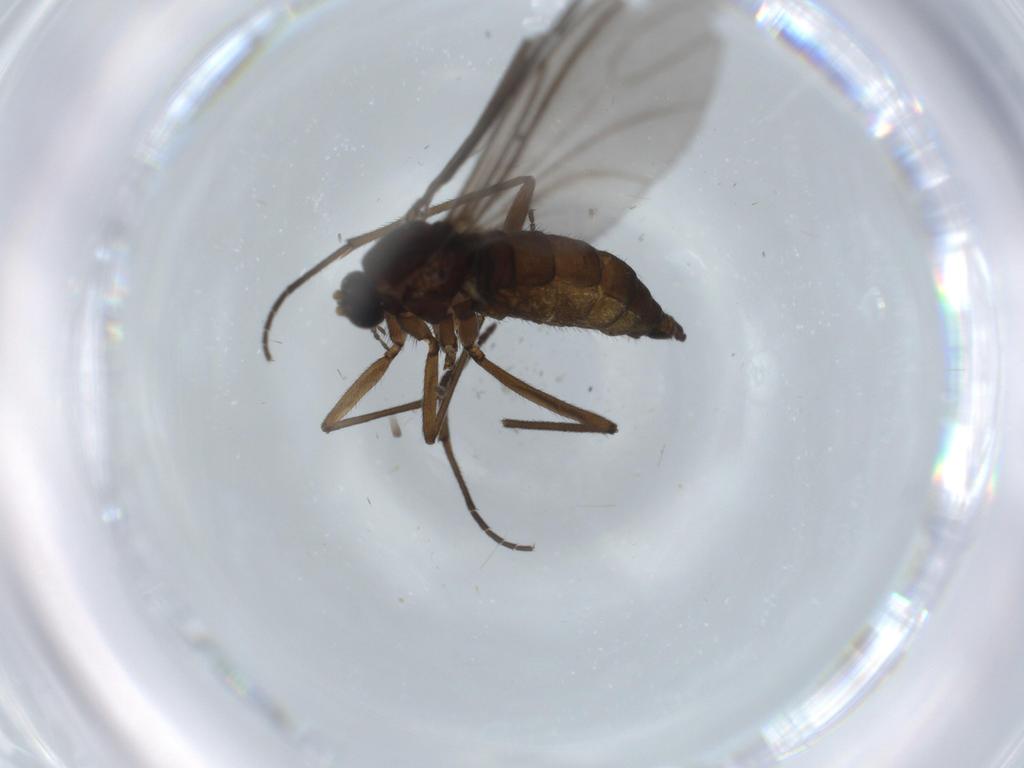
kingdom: Animalia
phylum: Arthropoda
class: Insecta
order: Diptera
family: Sciaridae
